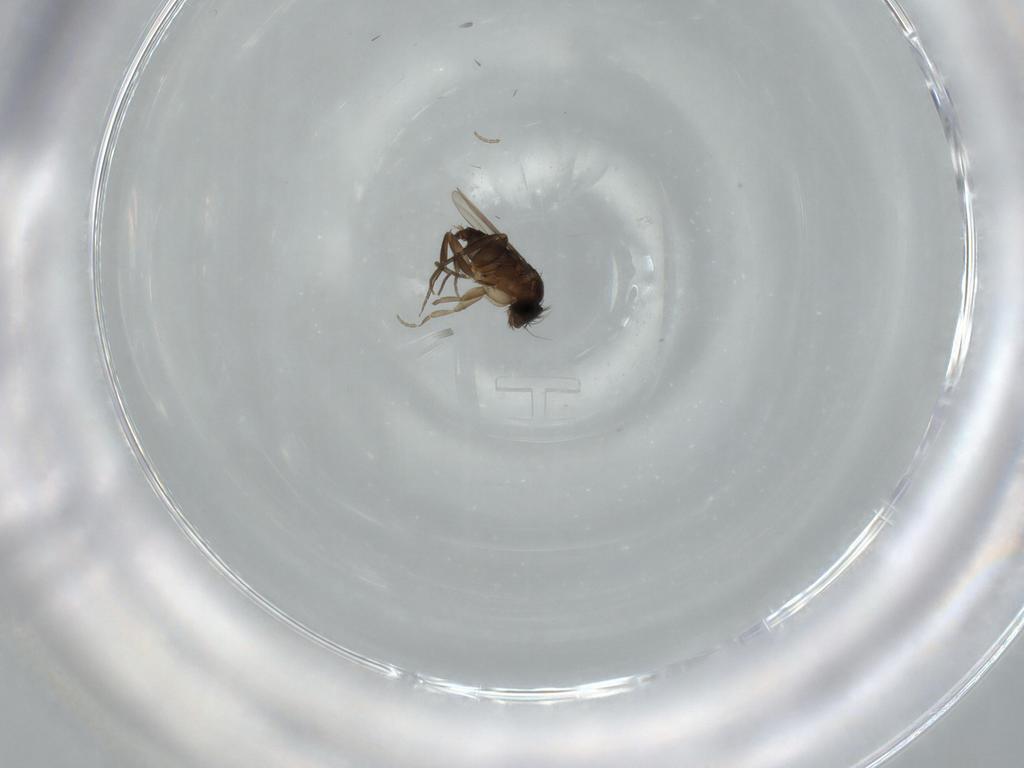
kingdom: Animalia
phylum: Arthropoda
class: Insecta
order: Diptera
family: Phoridae
